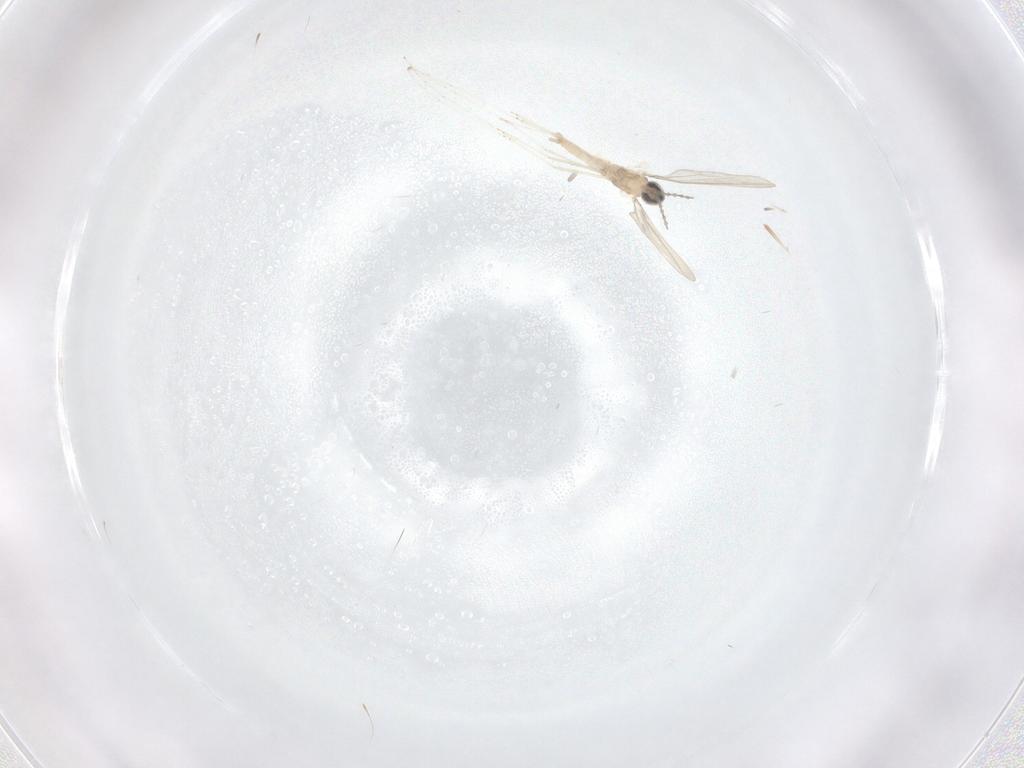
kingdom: Animalia
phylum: Arthropoda
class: Insecta
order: Diptera
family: Cecidomyiidae
